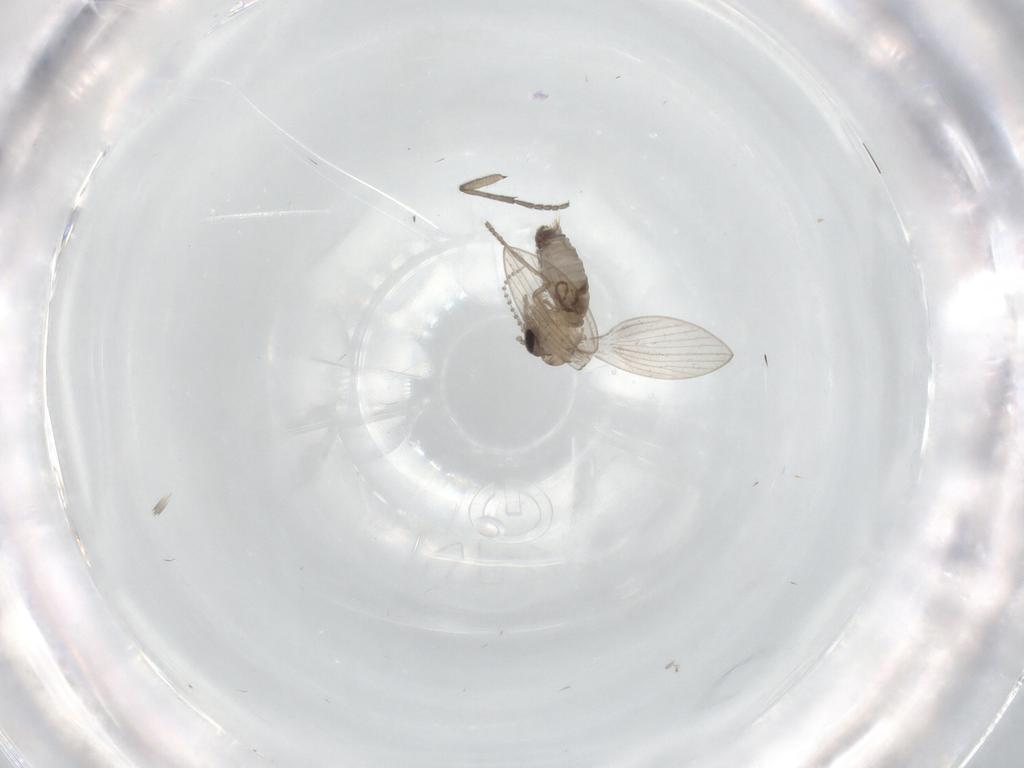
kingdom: Animalia
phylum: Arthropoda
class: Insecta
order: Diptera
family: Psychodidae
